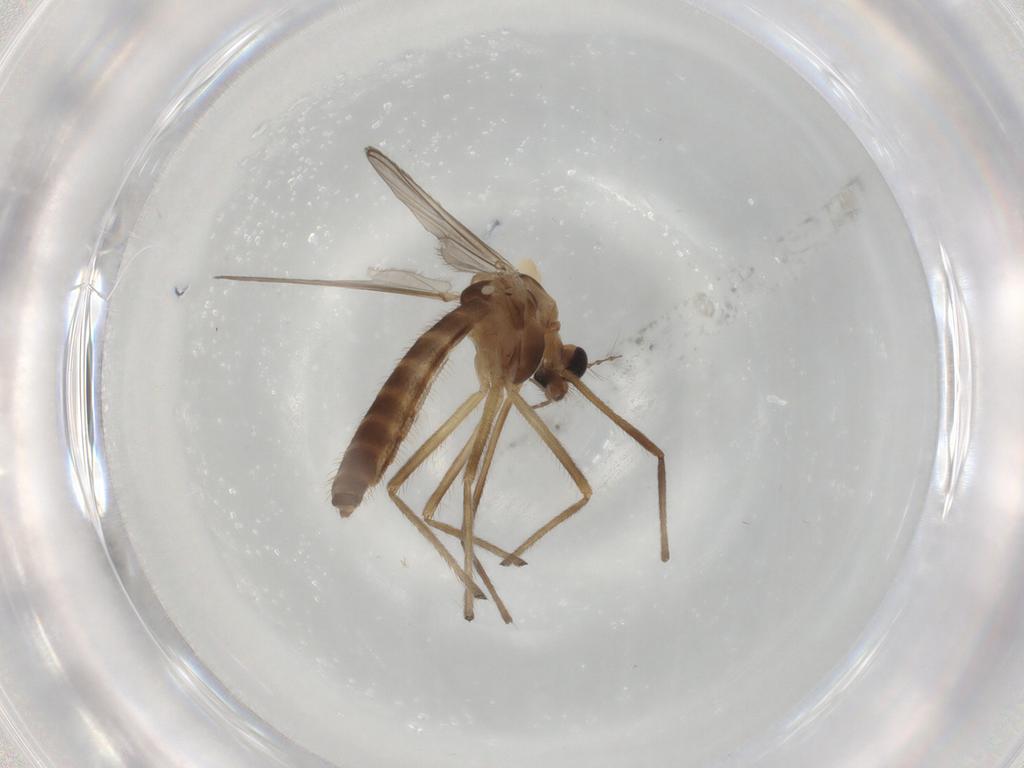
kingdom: Animalia
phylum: Arthropoda
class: Insecta
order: Diptera
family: Chironomidae
